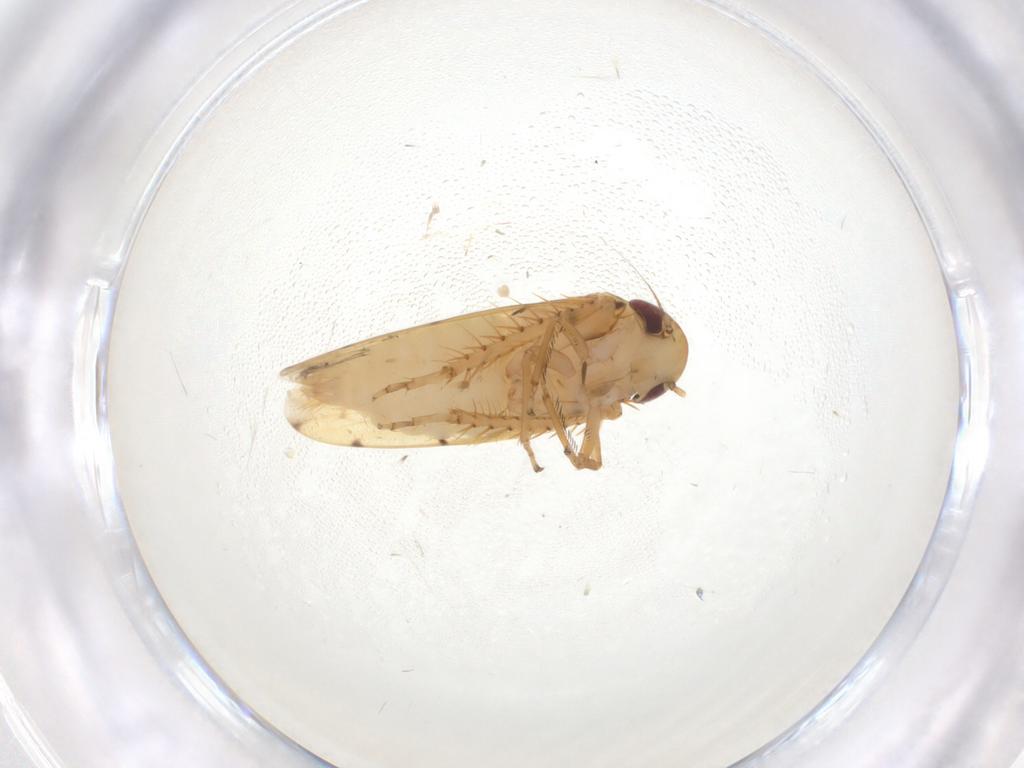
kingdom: Animalia
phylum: Arthropoda
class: Insecta
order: Hemiptera
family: Cicadellidae
